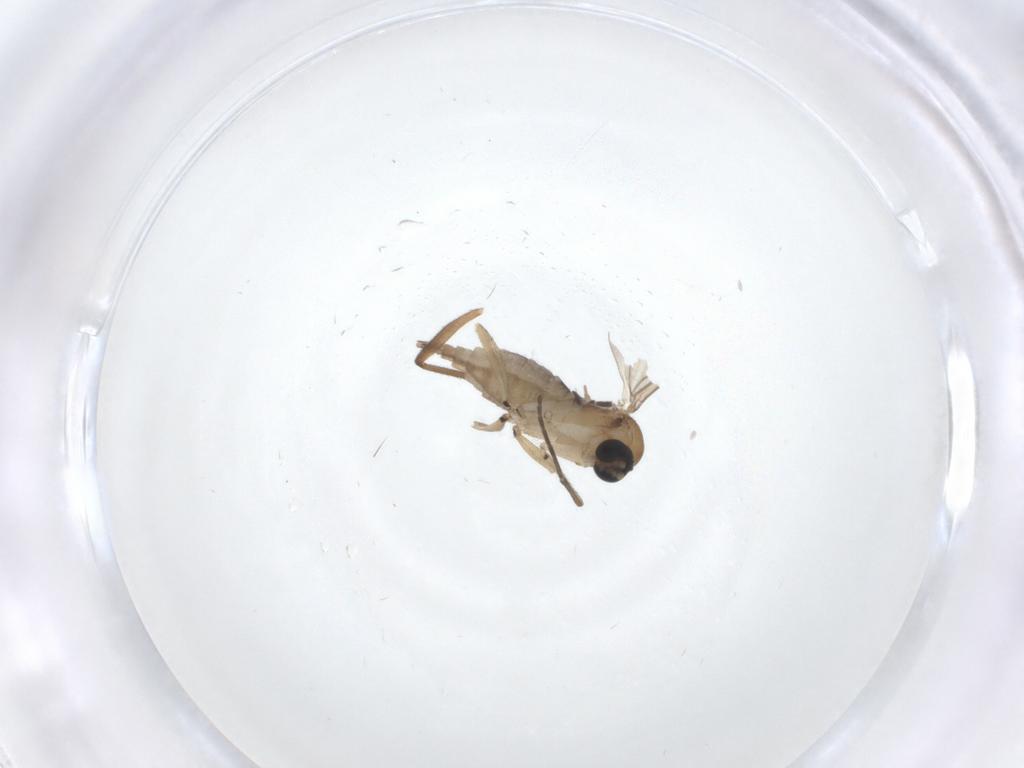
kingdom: Animalia
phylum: Arthropoda
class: Insecta
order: Diptera
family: Sciaridae
